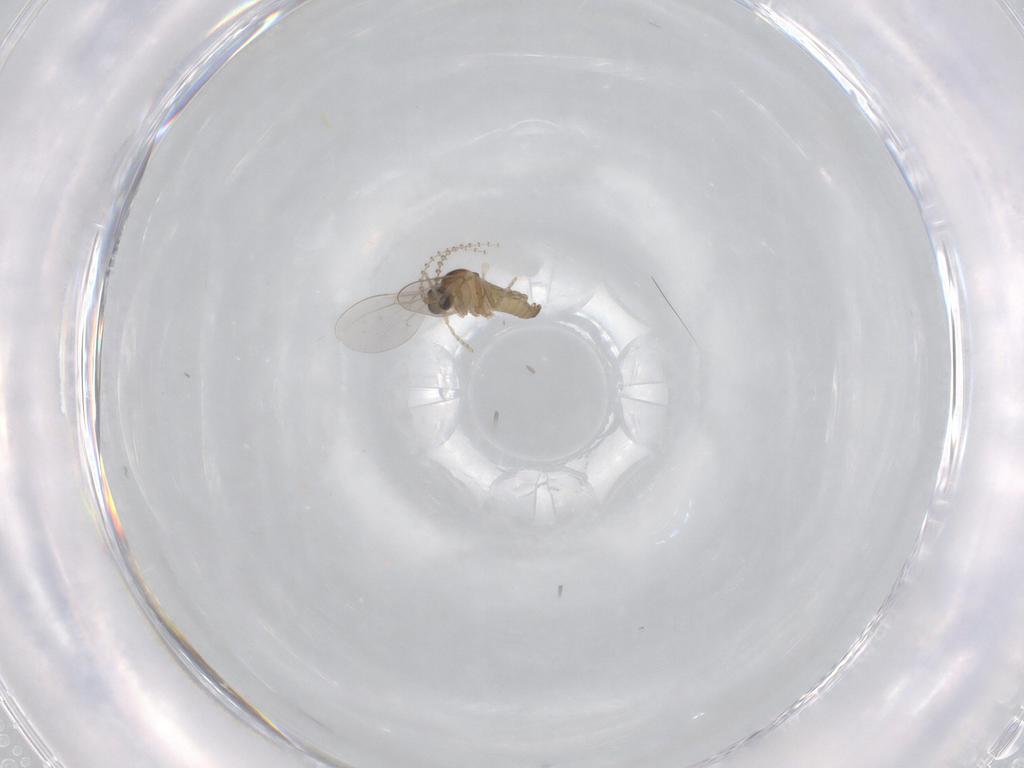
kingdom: Animalia
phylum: Arthropoda
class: Insecta
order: Diptera
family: Cecidomyiidae
